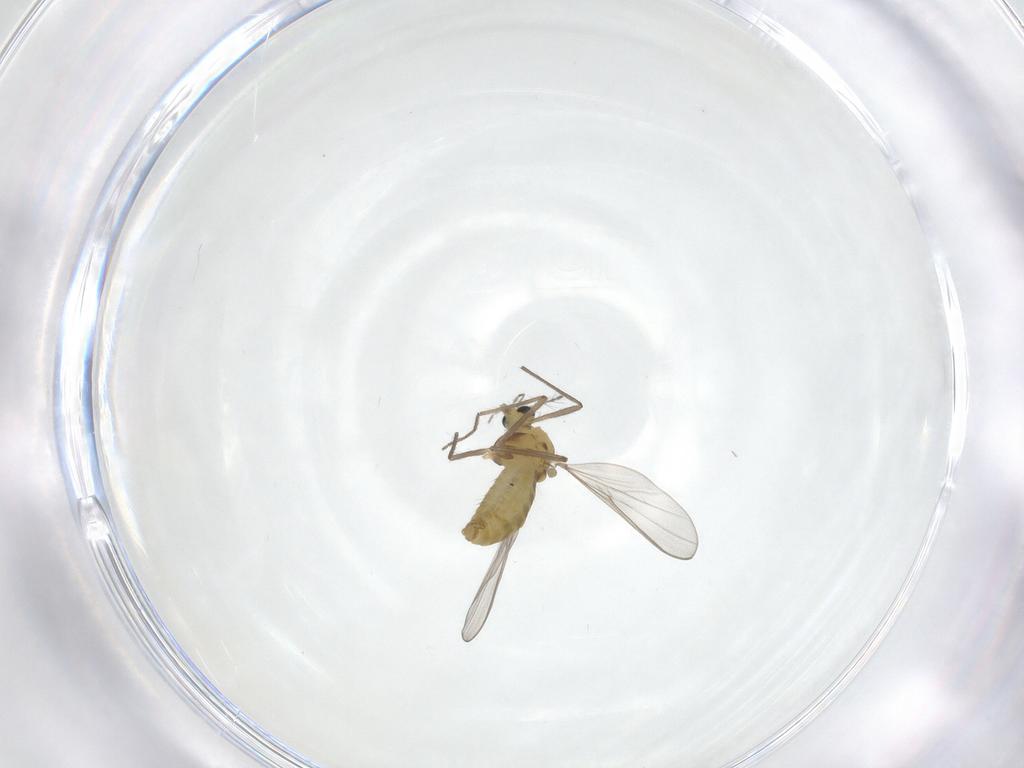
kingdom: Animalia
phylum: Arthropoda
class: Insecta
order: Diptera
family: Chironomidae
